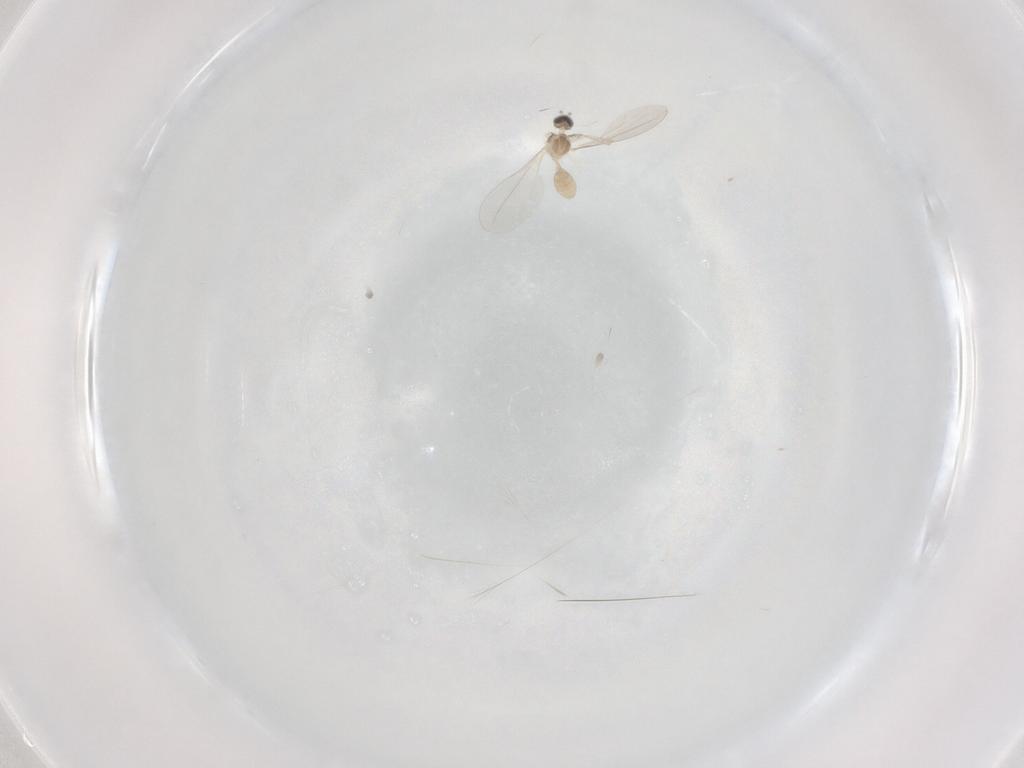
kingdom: Animalia
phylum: Arthropoda
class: Insecta
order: Diptera
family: Cecidomyiidae
